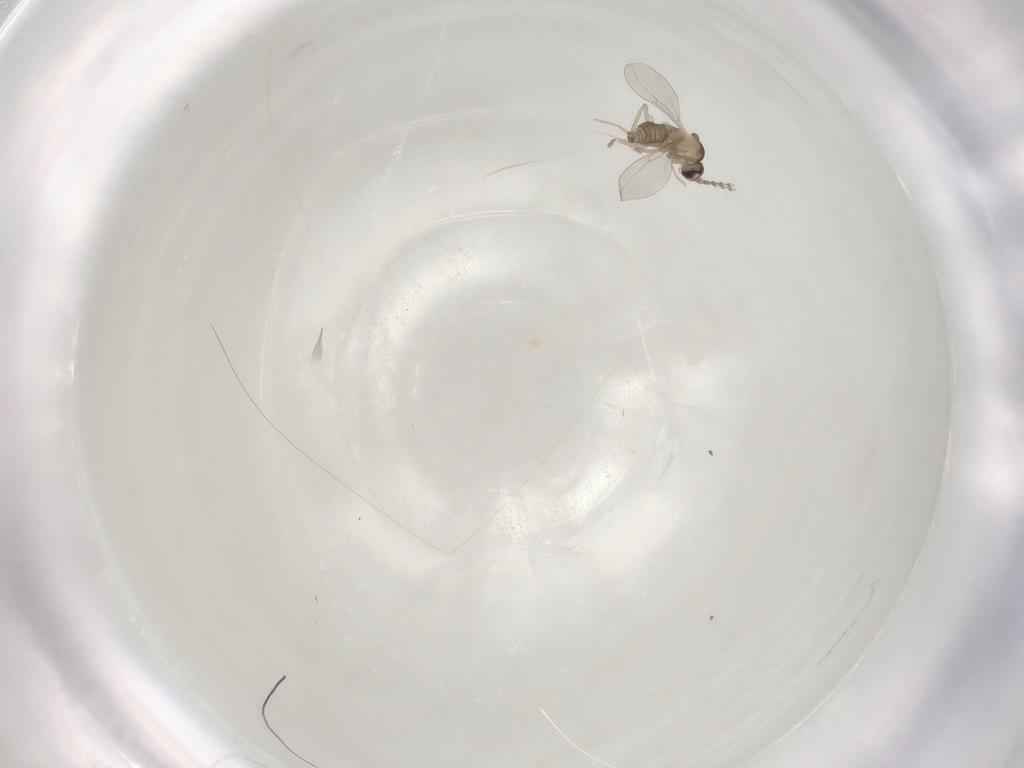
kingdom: Animalia
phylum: Arthropoda
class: Insecta
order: Diptera
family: Cecidomyiidae
